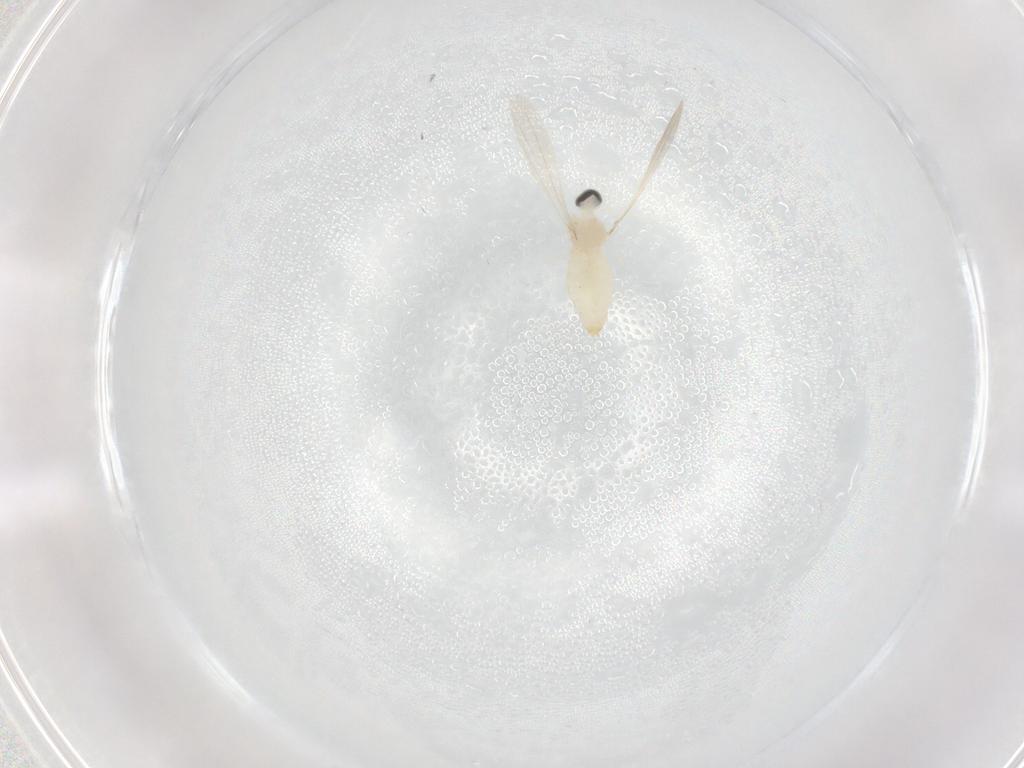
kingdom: Animalia
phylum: Arthropoda
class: Insecta
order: Diptera
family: Cecidomyiidae
